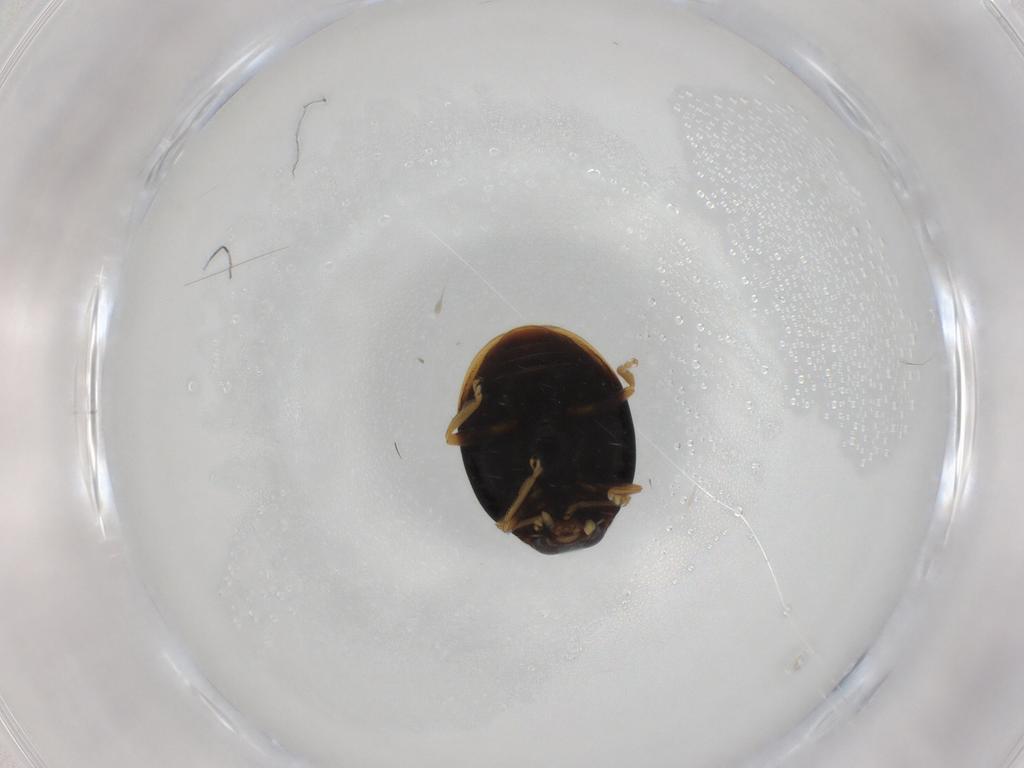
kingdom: Animalia
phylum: Arthropoda
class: Insecta
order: Coleoptera
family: Coccinellidae
